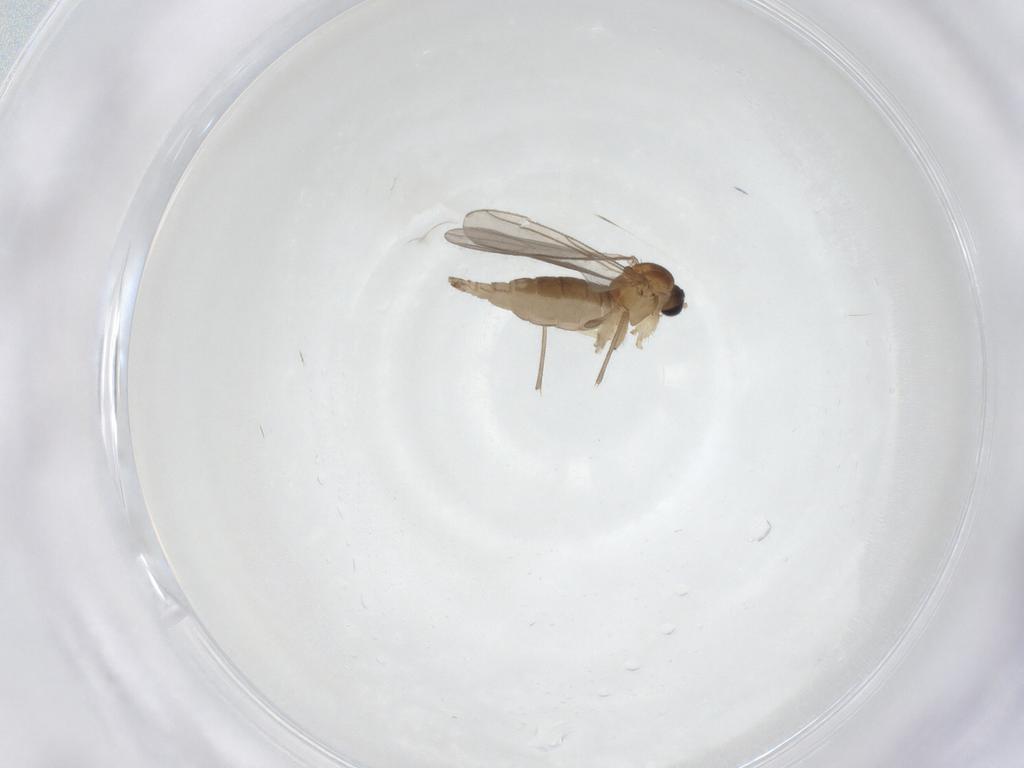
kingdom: Animalia
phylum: Arthropoda
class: Insecta
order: Diptera
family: Sciaridae
